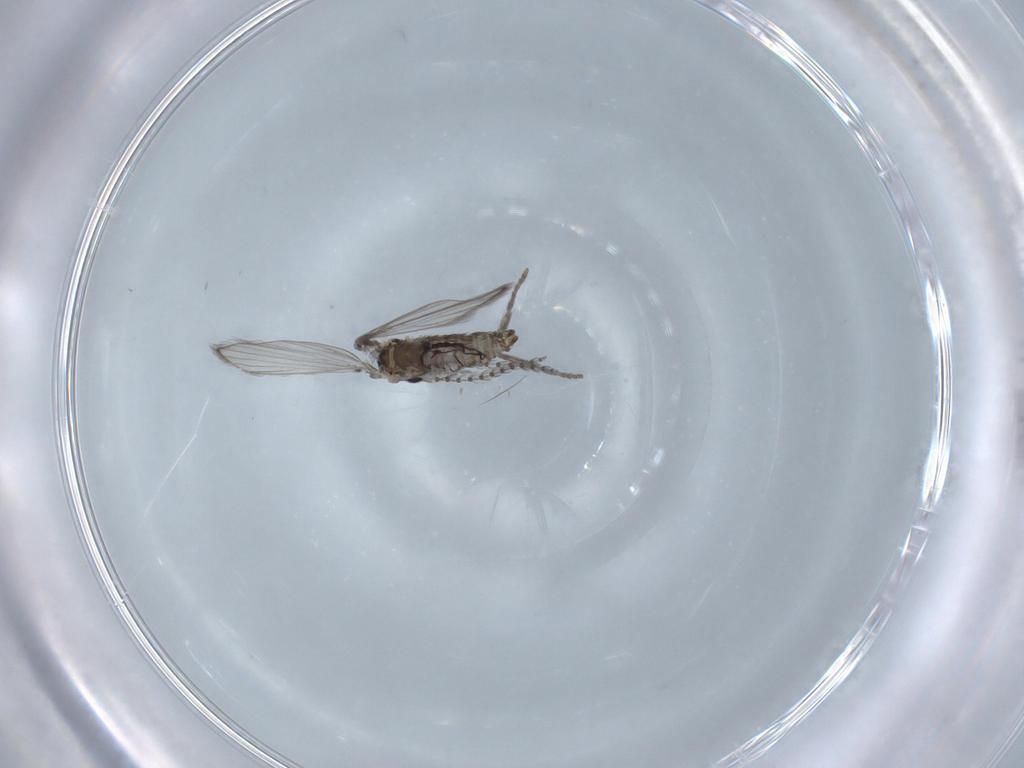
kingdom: Animalia
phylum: Arthropoda
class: Insecta
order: Diptera
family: Psychodidae
